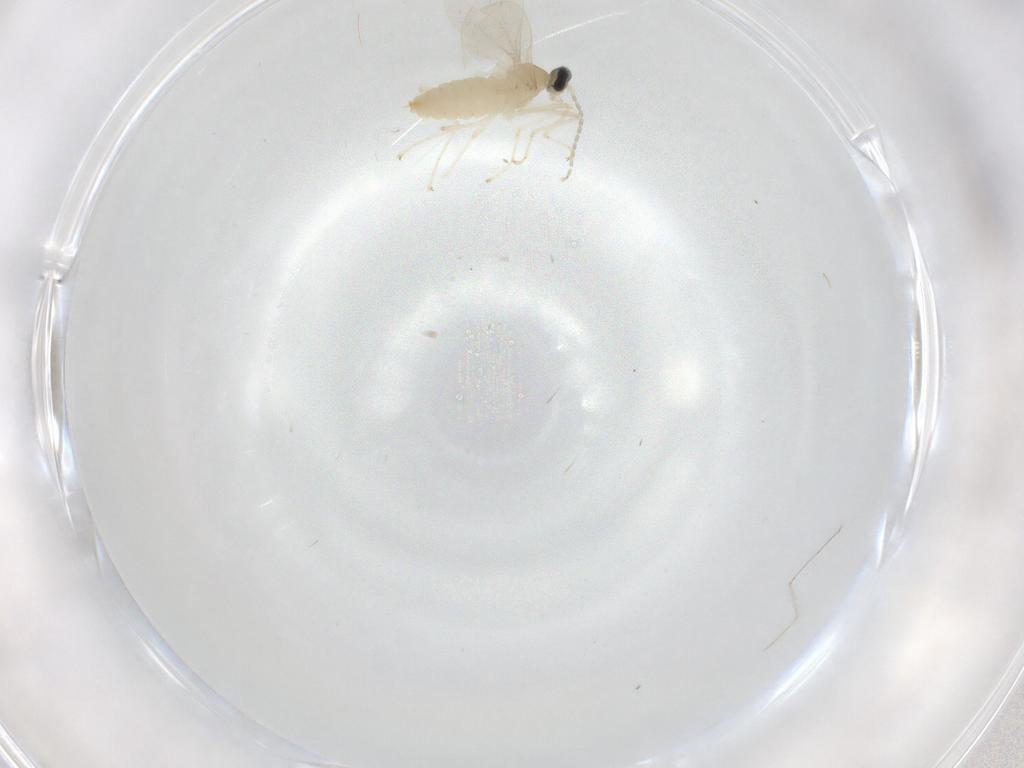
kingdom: Animalia
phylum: Arthropoda
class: Insecta
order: Diptera
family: Cecidomyiidae
